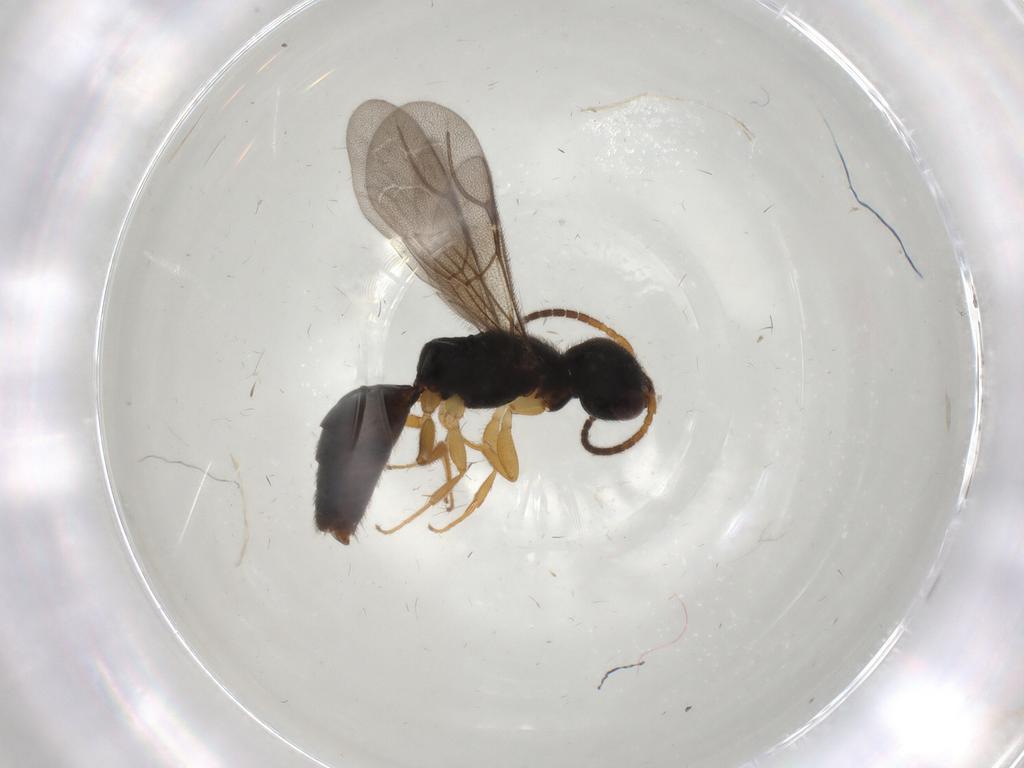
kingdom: Animalia
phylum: Arthropoda
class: Insecta
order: Hymenoptera
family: Bethylidae
